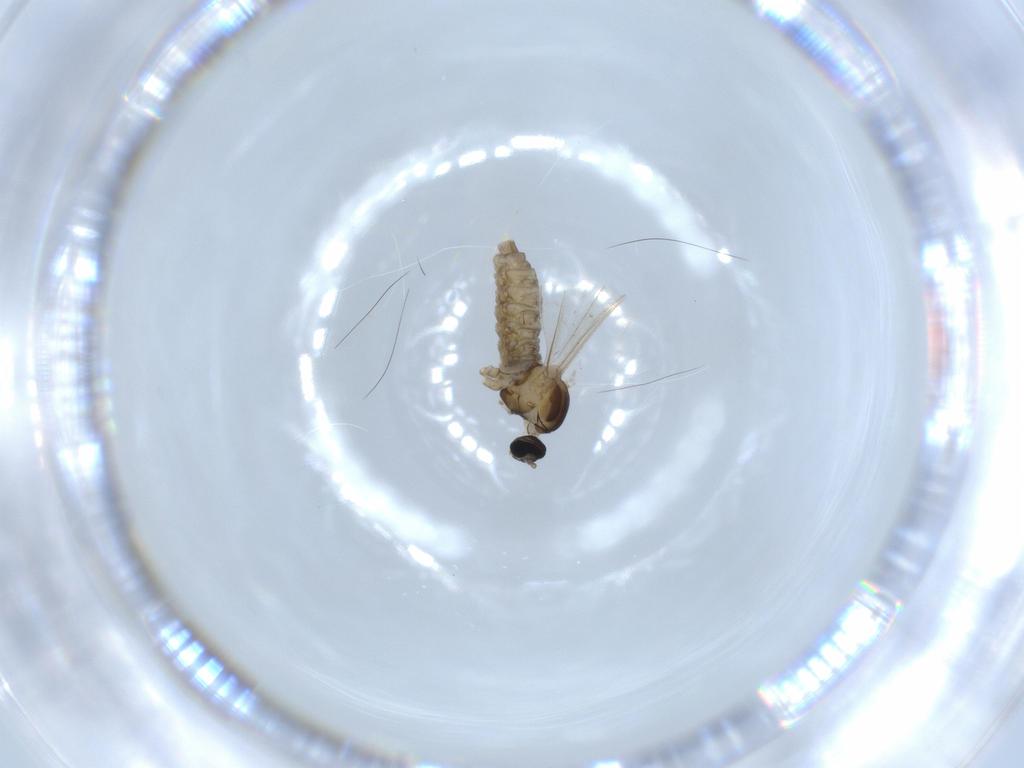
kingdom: Animalia
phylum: Arthropoda
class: Insecta
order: Diptera
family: Cecidomyiidae
